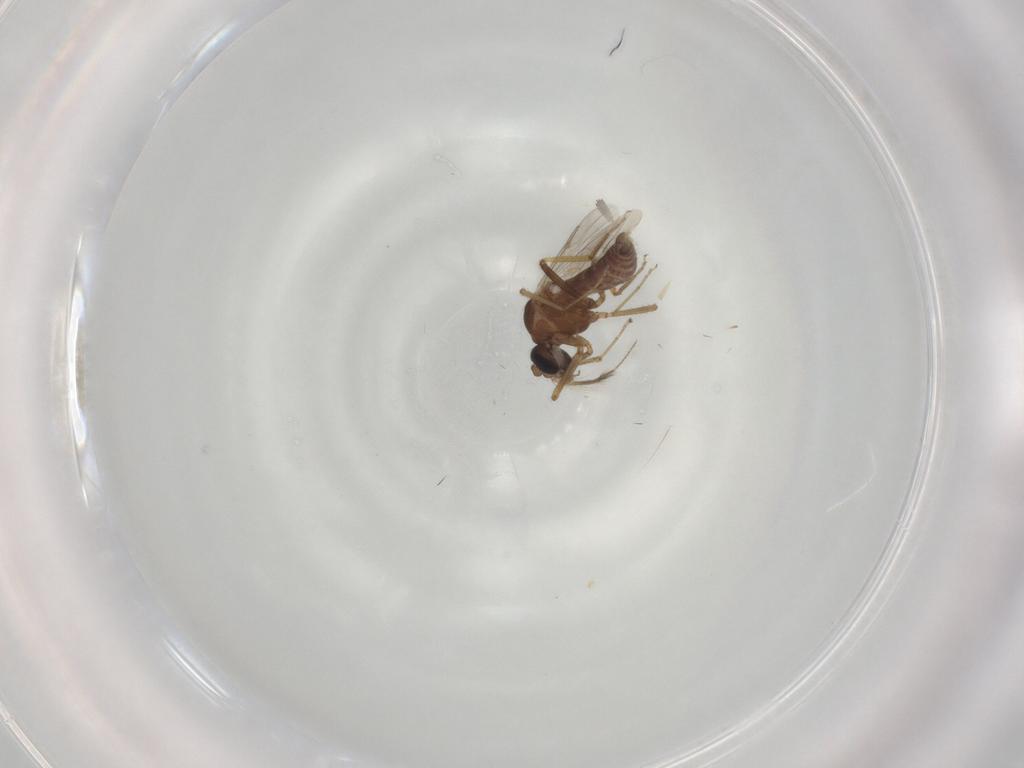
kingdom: Animalia
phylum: Arthropoda
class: Insecta
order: Diptera
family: Ceratopogonidae
